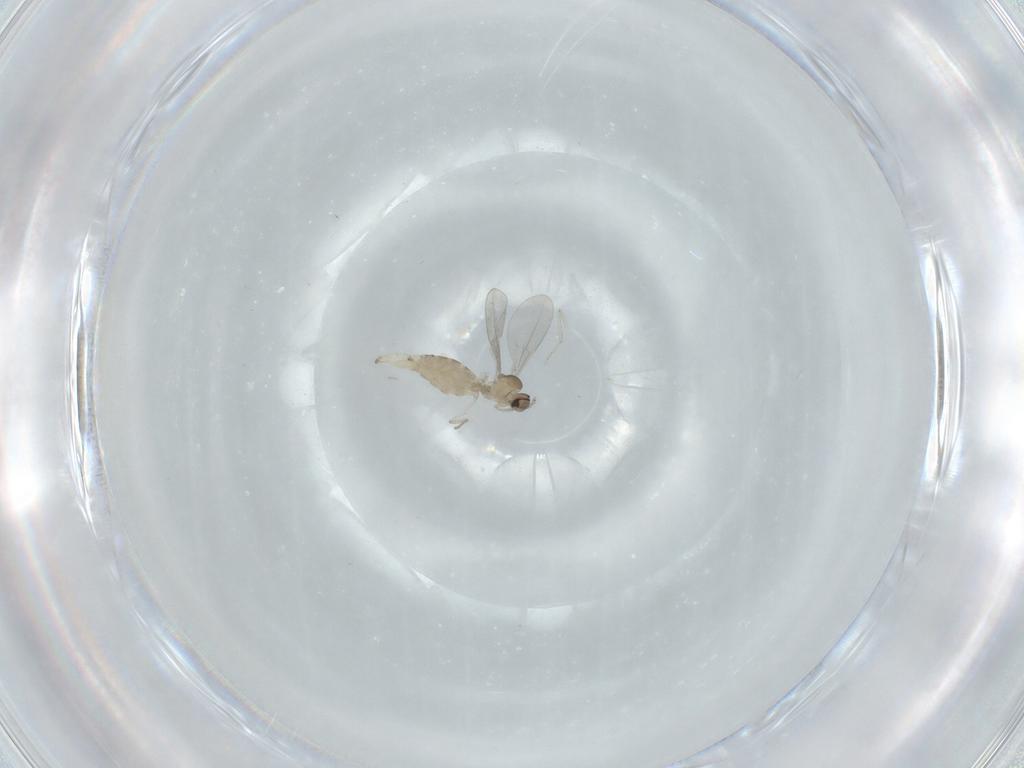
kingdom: Animalia
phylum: Arthropoda
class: Insecta
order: Diptera
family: Cecidomyiidae
